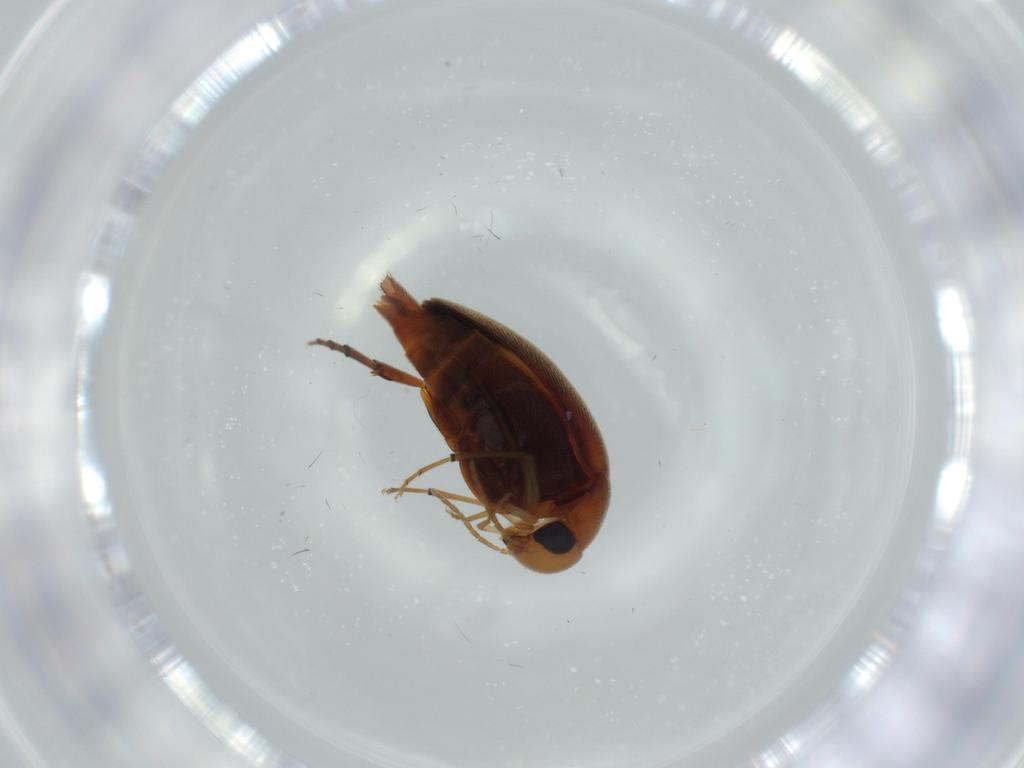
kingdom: Animalia
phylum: Arthropoda
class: Insecta
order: Coleoptera
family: Mordellidae
